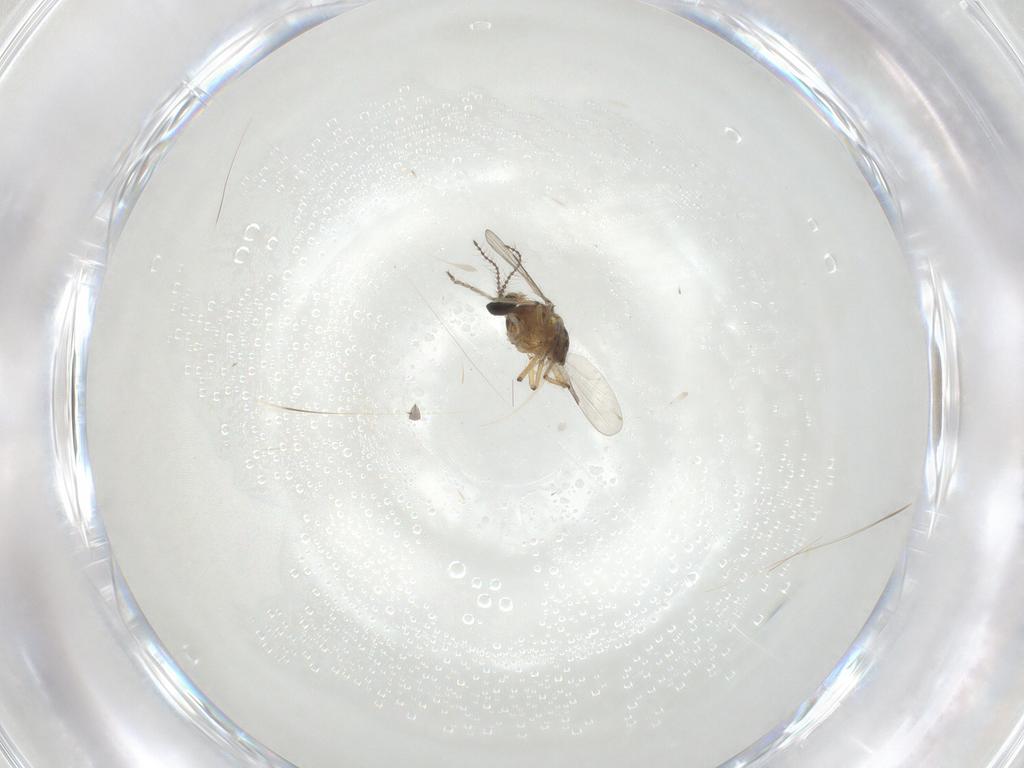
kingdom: Animalia
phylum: Arthropoda
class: Insecta
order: Diptera
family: Ceratopogonidae
